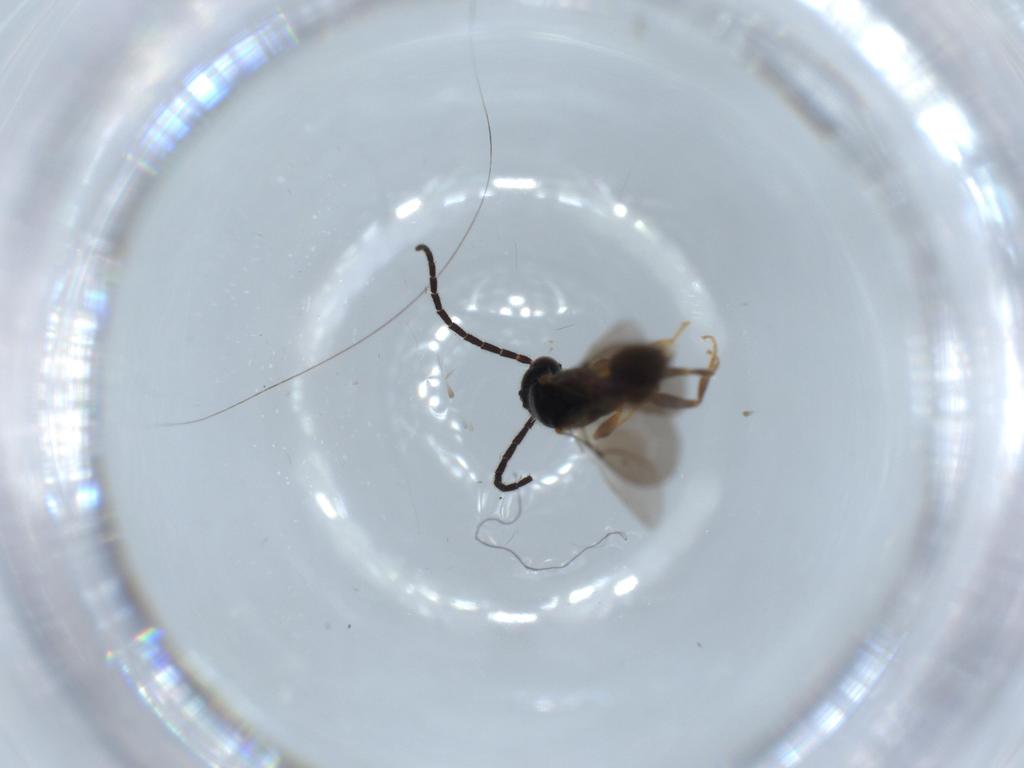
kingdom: Animalia
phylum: Arthropoda
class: Insecta
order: Hymenoptera
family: Bethylidae
